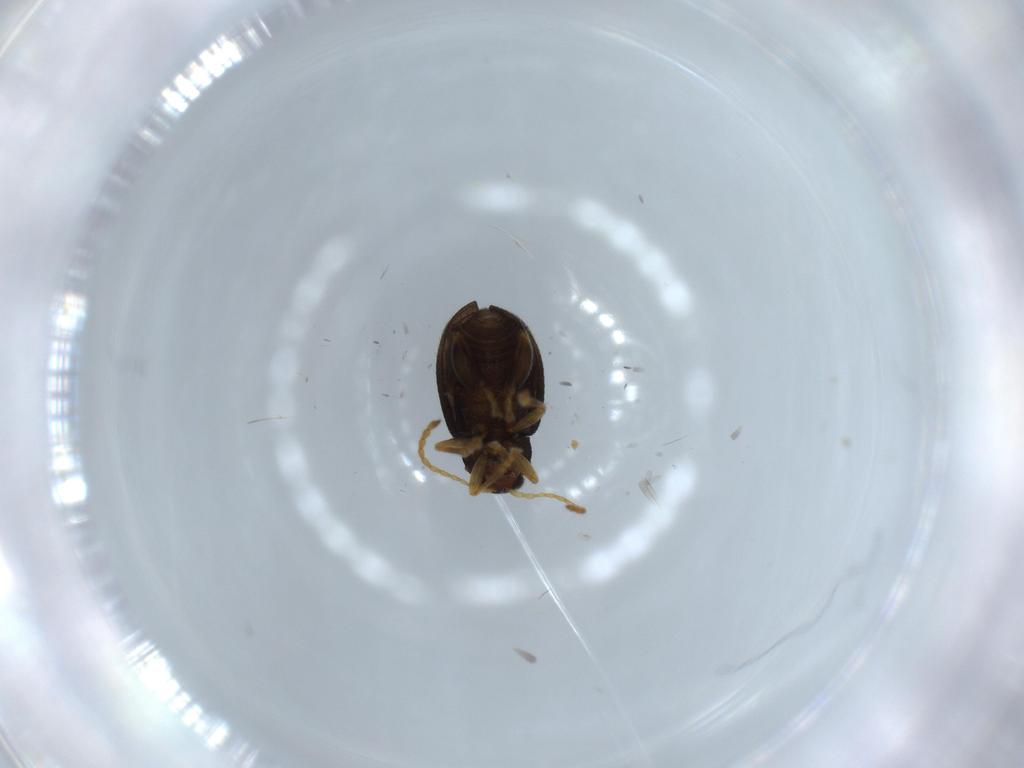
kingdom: Animalia
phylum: Arthropoda
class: Insecta
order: Coleoptera
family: Chrysomelidae
